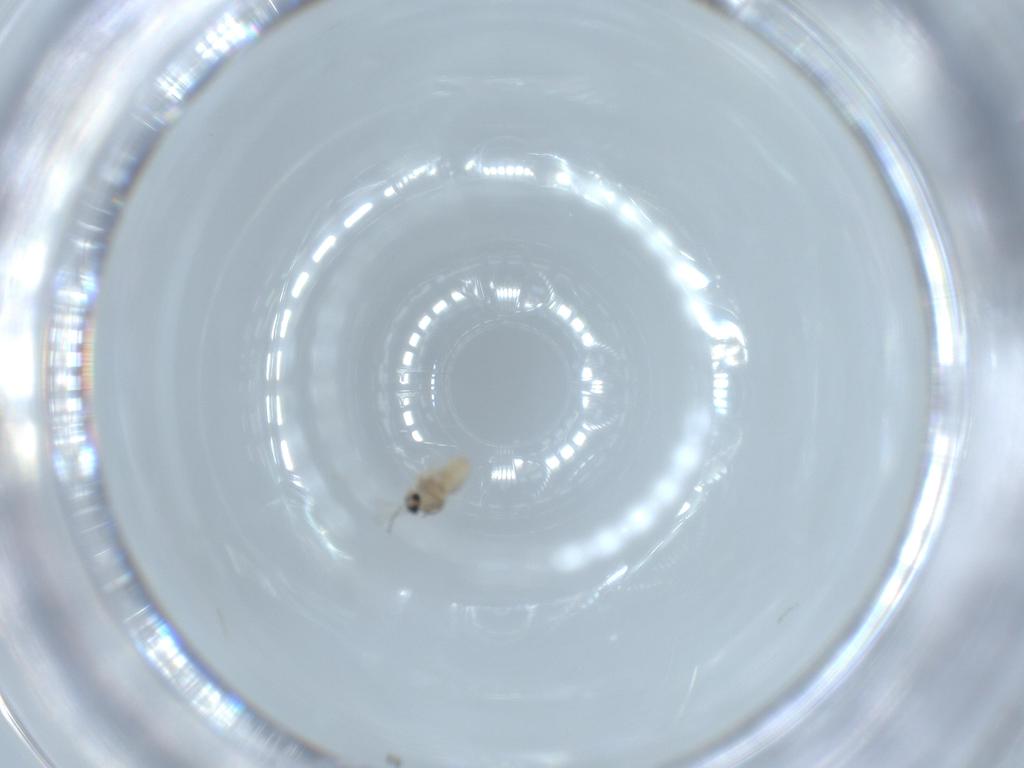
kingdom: Animalia
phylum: Arthropoda
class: Insecta
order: Diptera
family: Cecidomyiidae
